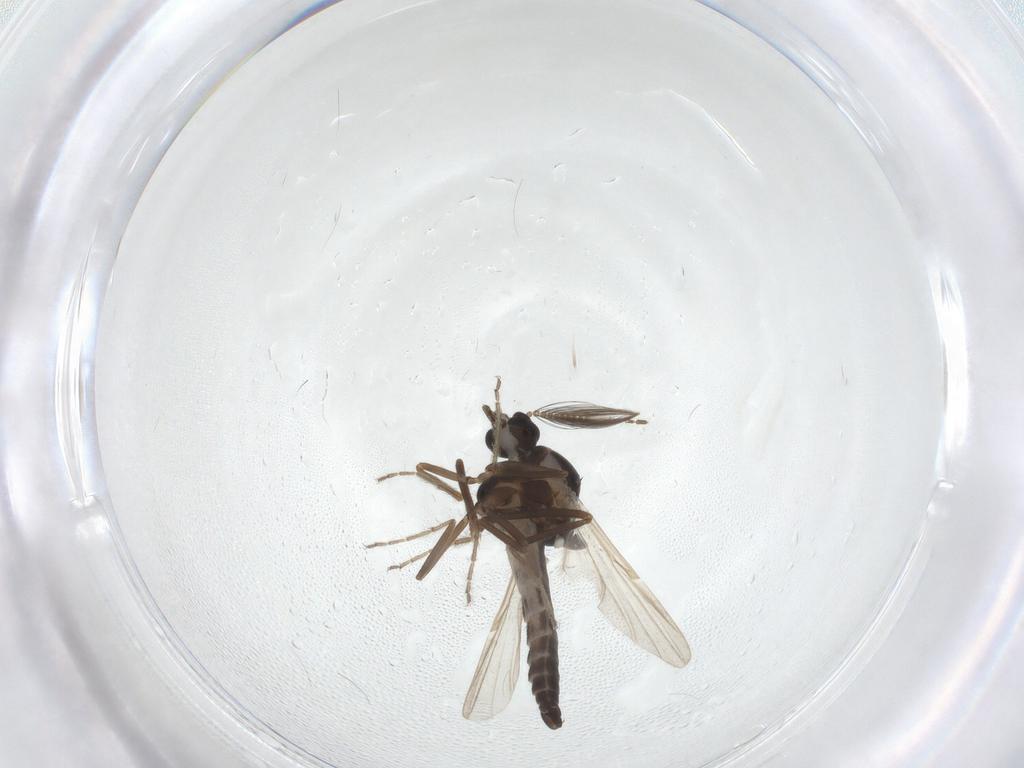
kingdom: Animalia
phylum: Arthropoda
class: Insecta
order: Diptera
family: Ceratopogonidae
